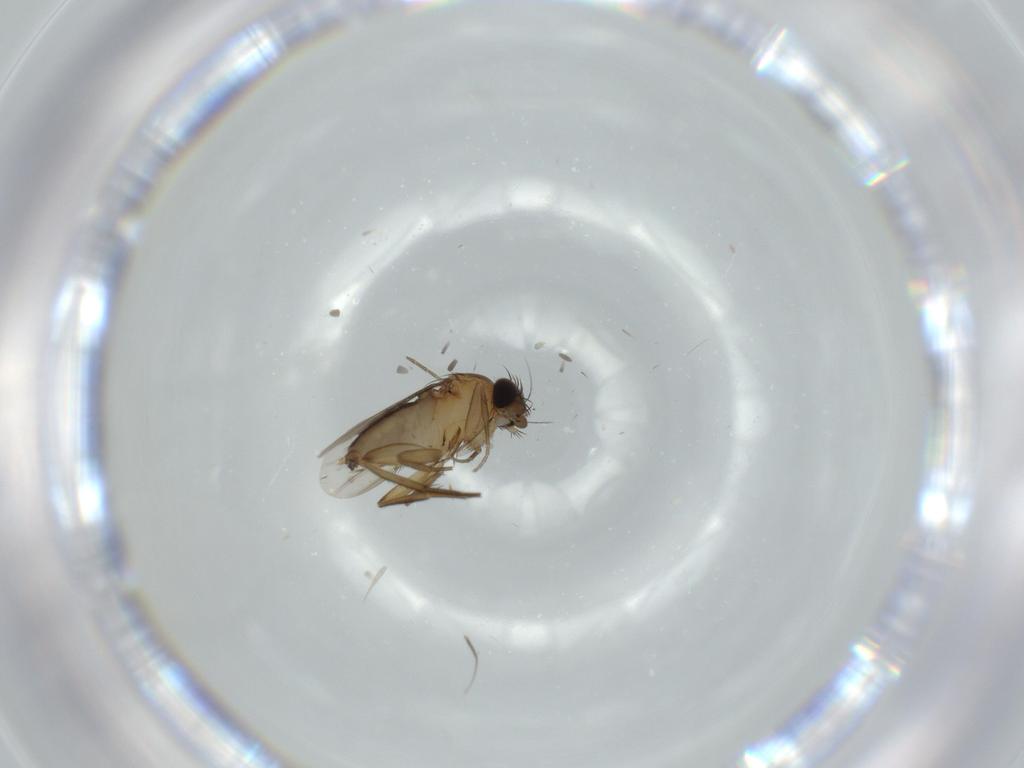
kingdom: Animalia
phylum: Arthropoda
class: Insecta
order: Diptera
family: Phoridae
